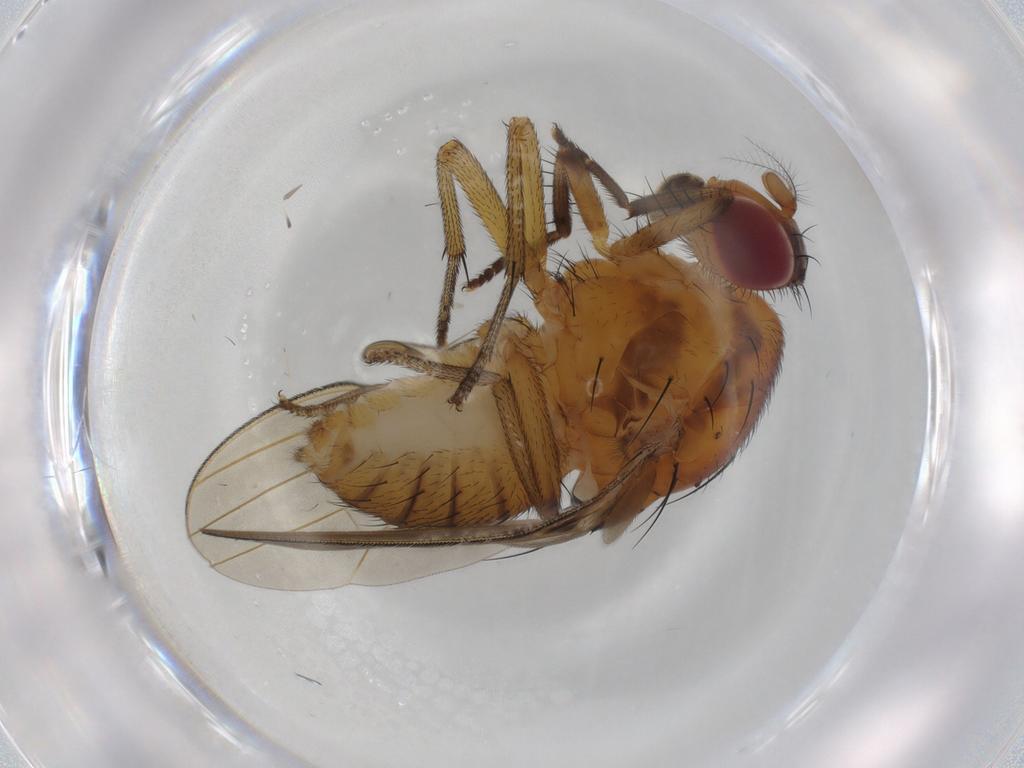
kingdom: Animalia
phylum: Arthropoda
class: Insecta
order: Diptera
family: Lauxaniidae
